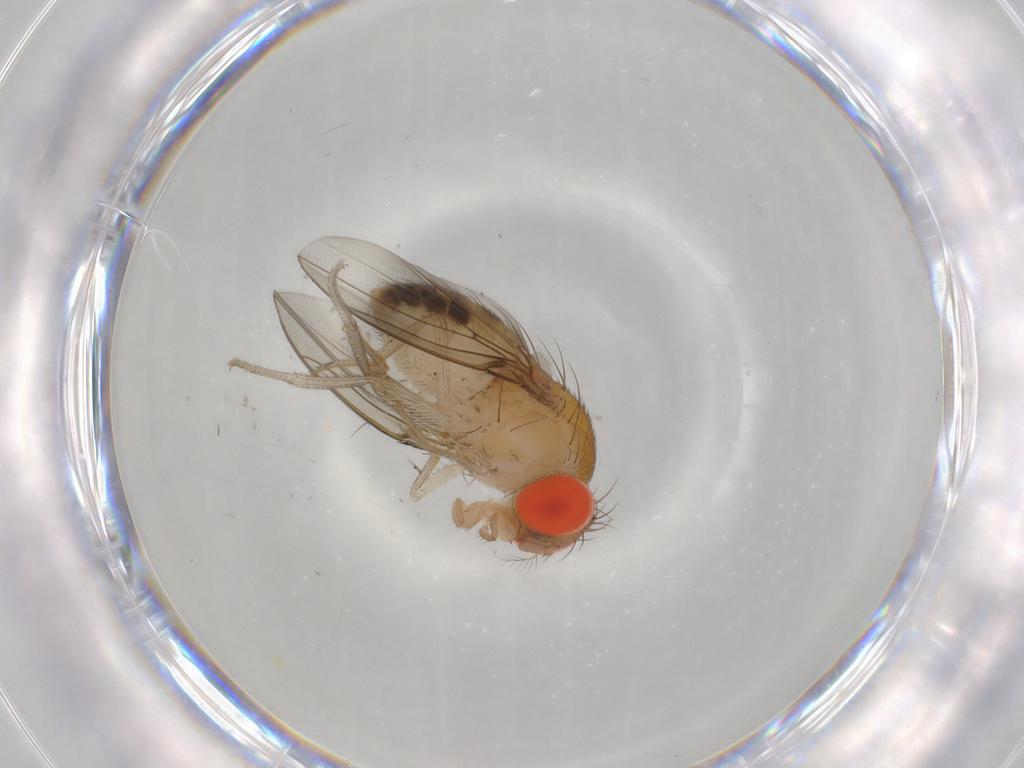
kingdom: Animalia
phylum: Arthropoda
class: Insecta
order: Diptera
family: Drosophilidae
